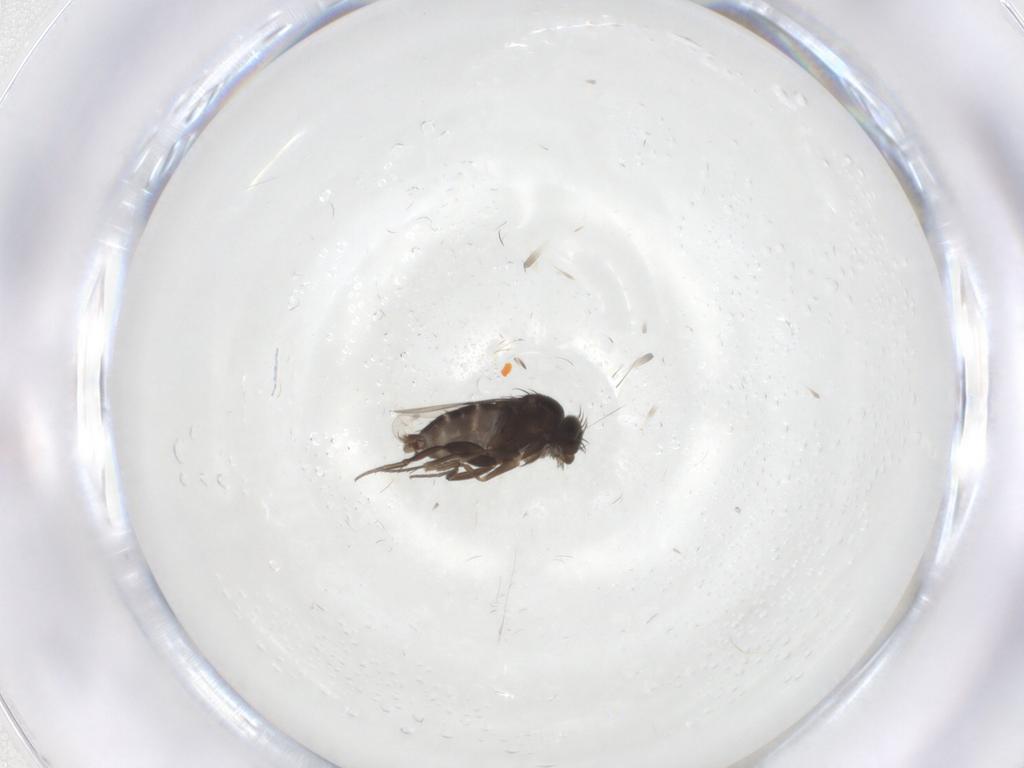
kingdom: Animalia
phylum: Arthropoda
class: Insecta
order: Diptera
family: Phoridae
